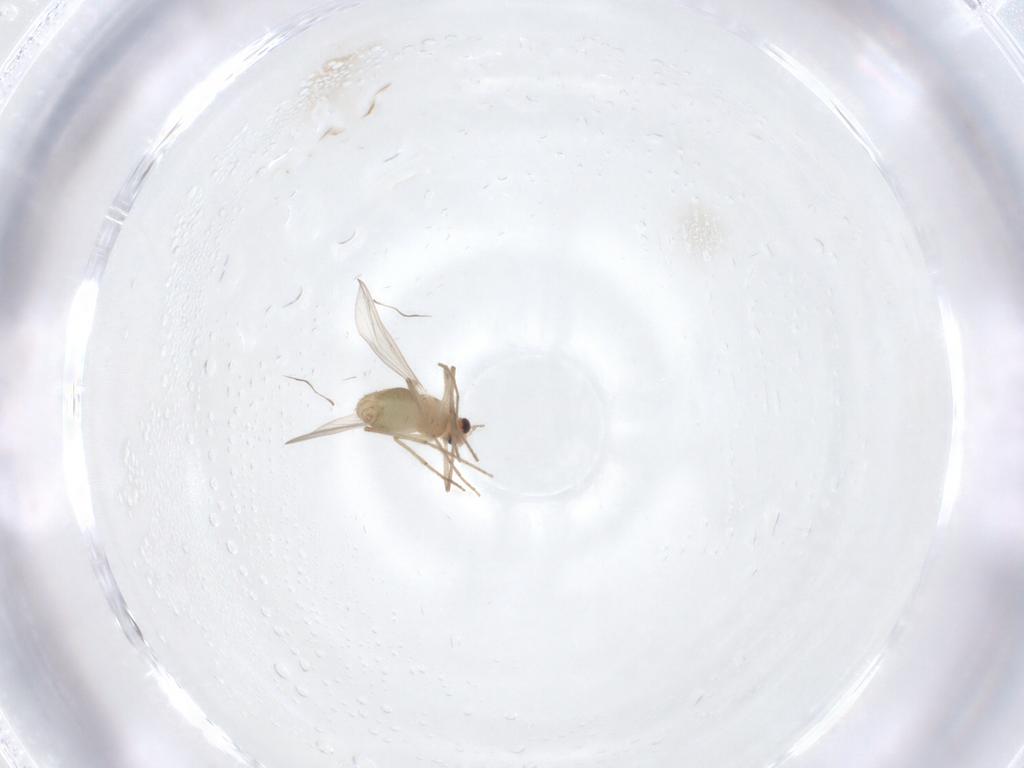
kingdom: Animalia
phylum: Arthropoda
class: Insecta
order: Diptera
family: Chironomidae
